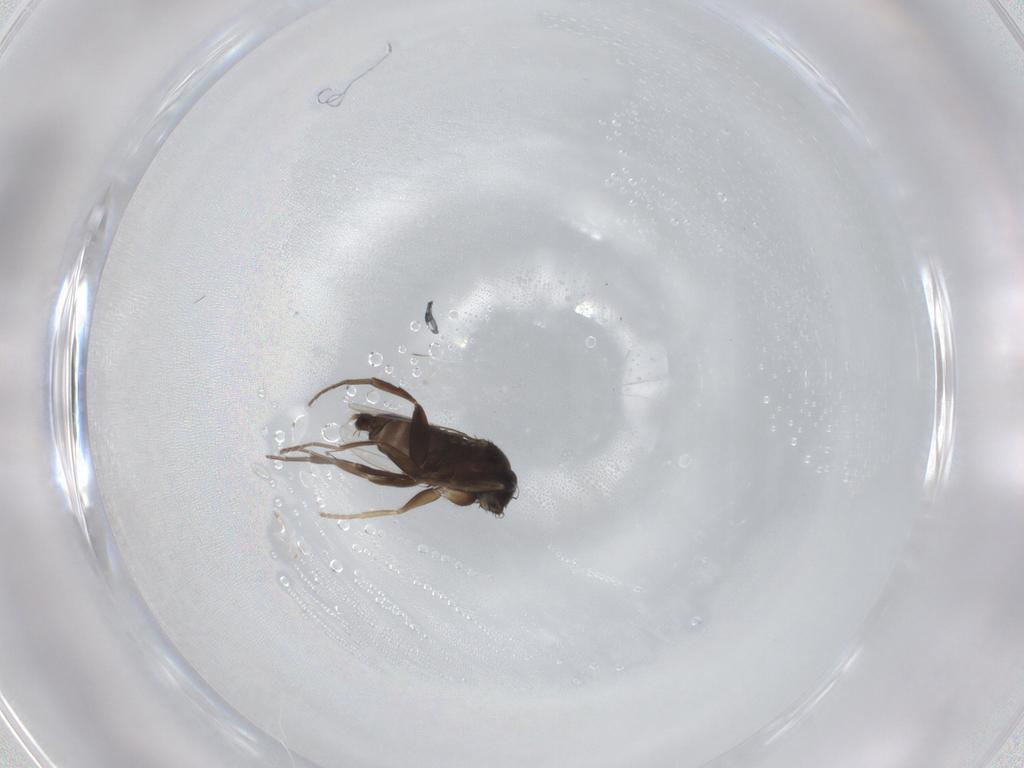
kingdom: Animalia
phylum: Arthropoda
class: Insecta
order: Diptera
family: Phoridae
